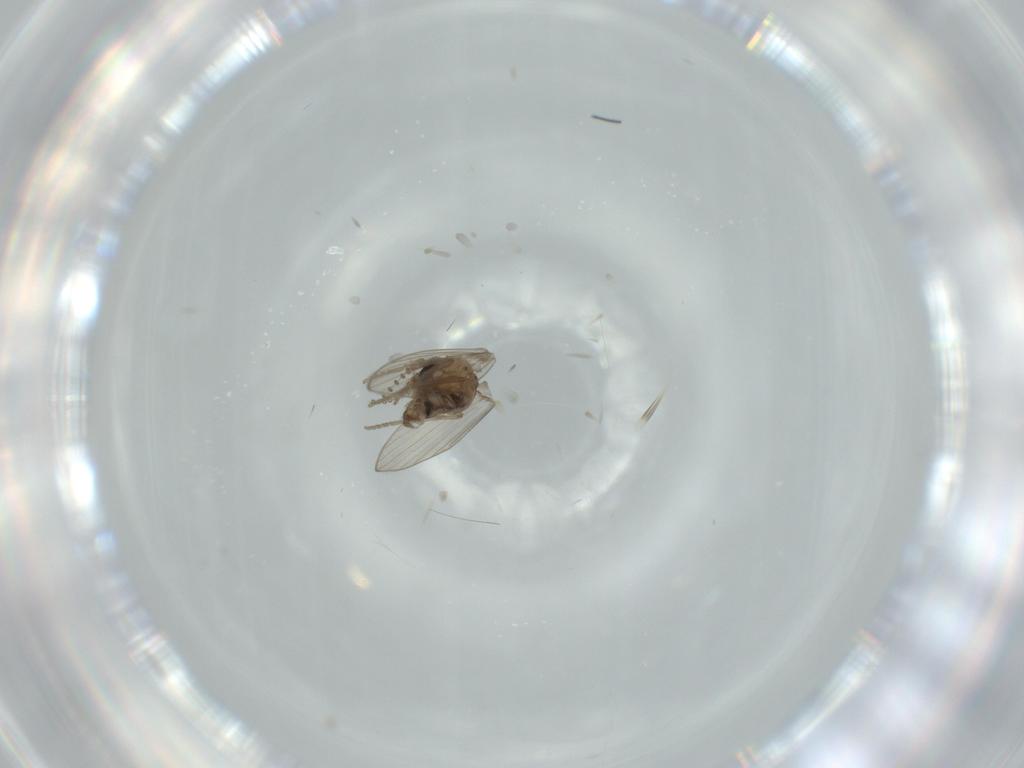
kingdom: Animalia
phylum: Arthropoda
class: Insecta
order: Diptera
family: Psychodidae
